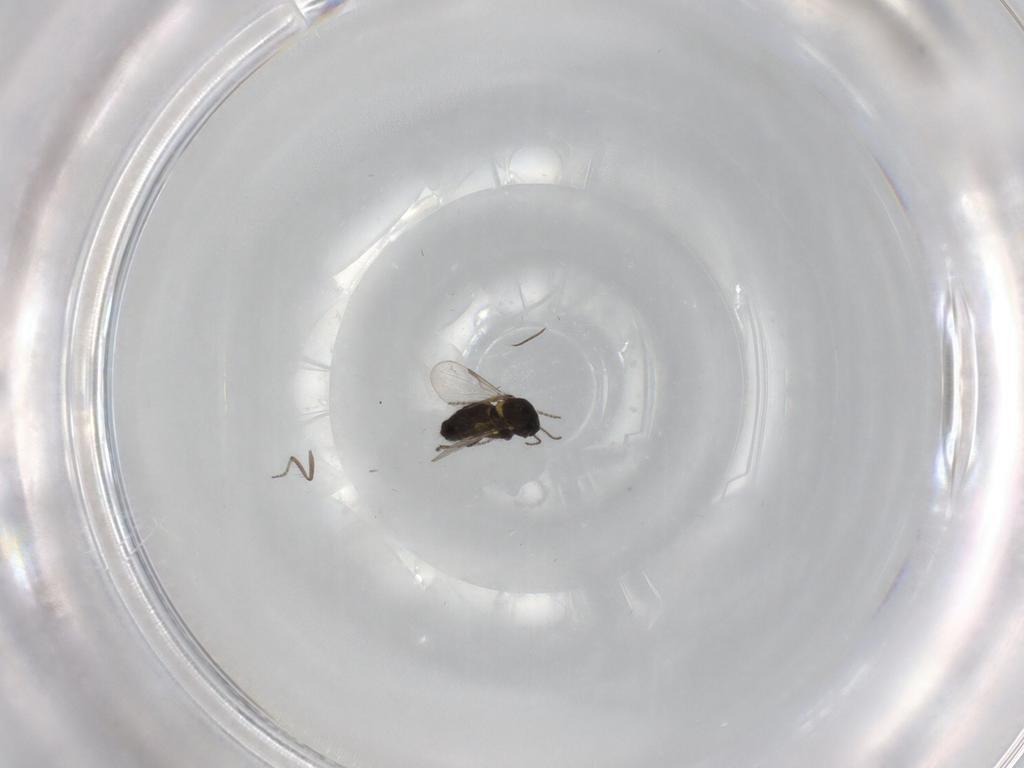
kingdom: Animalia
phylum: Arthropoda
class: Insecta
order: Diptera
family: Ceratopogonidae
